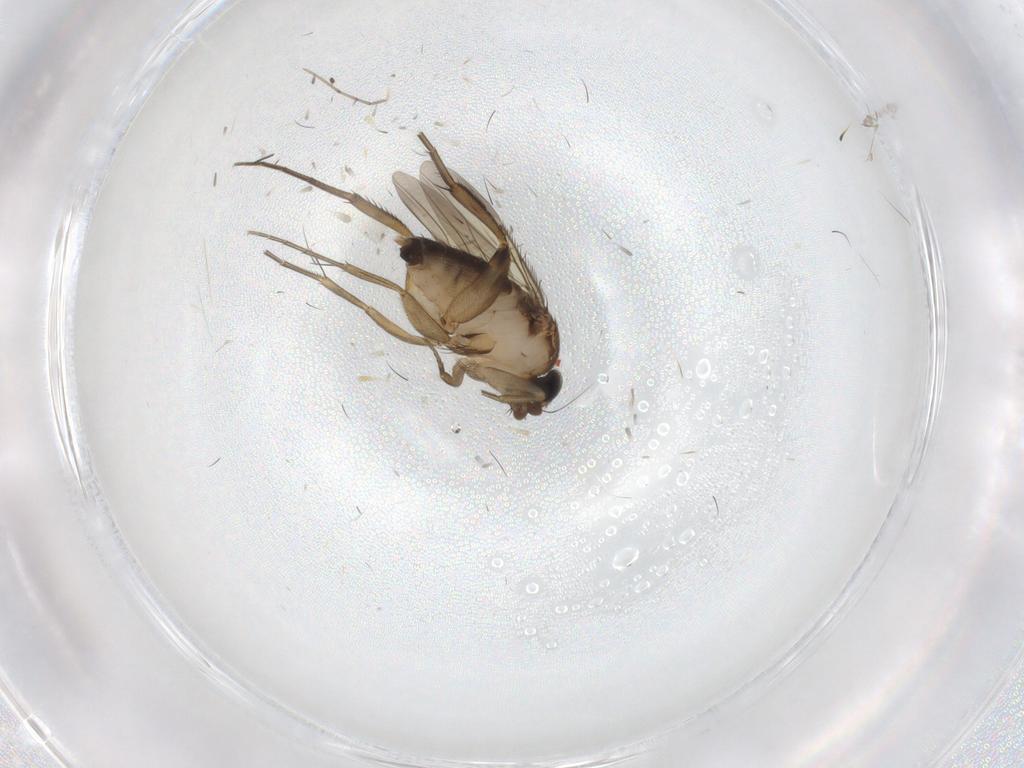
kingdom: Animalia
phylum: Arthropoda
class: Insecta
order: Diptera
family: Phoridae
